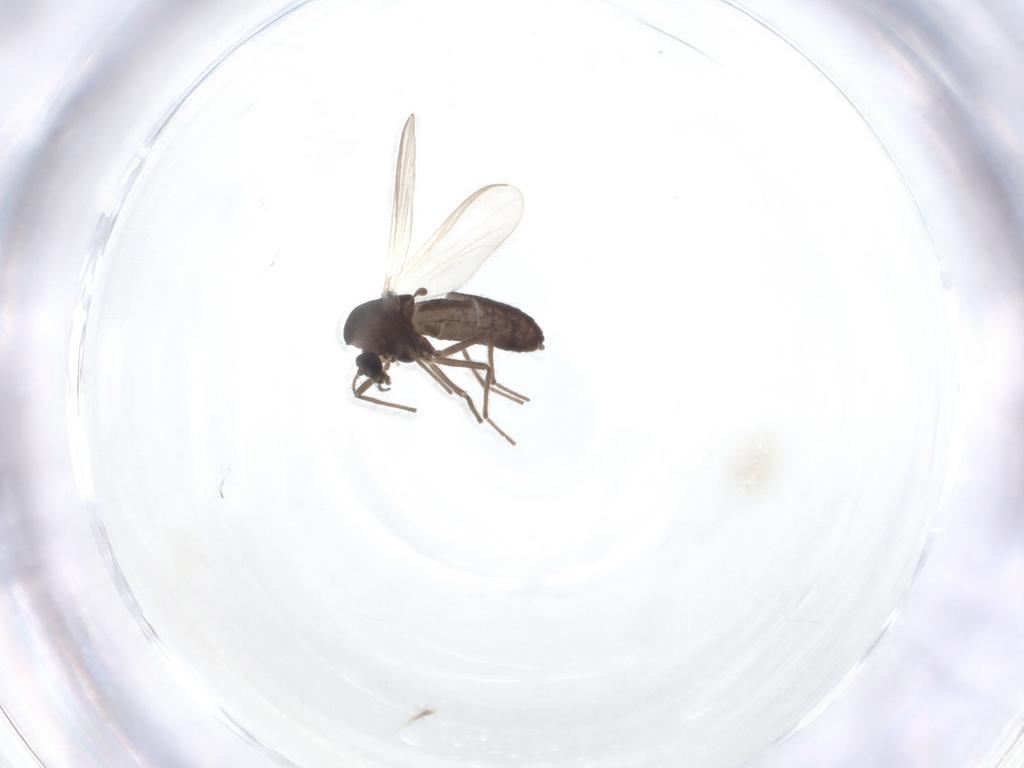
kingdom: Animalia
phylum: Arthropoda
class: Insecta
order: Diptera
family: Chironomidae
